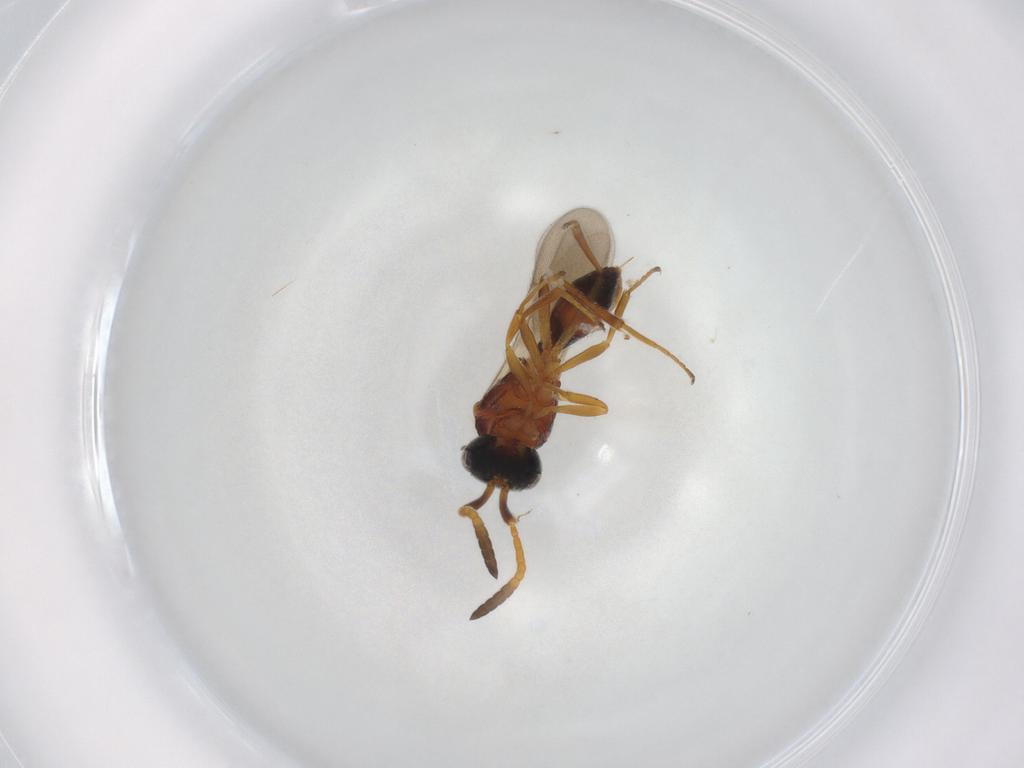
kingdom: Animalia
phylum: Arthropoda
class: Insecta
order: Hymenoptera
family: Scelionidae
